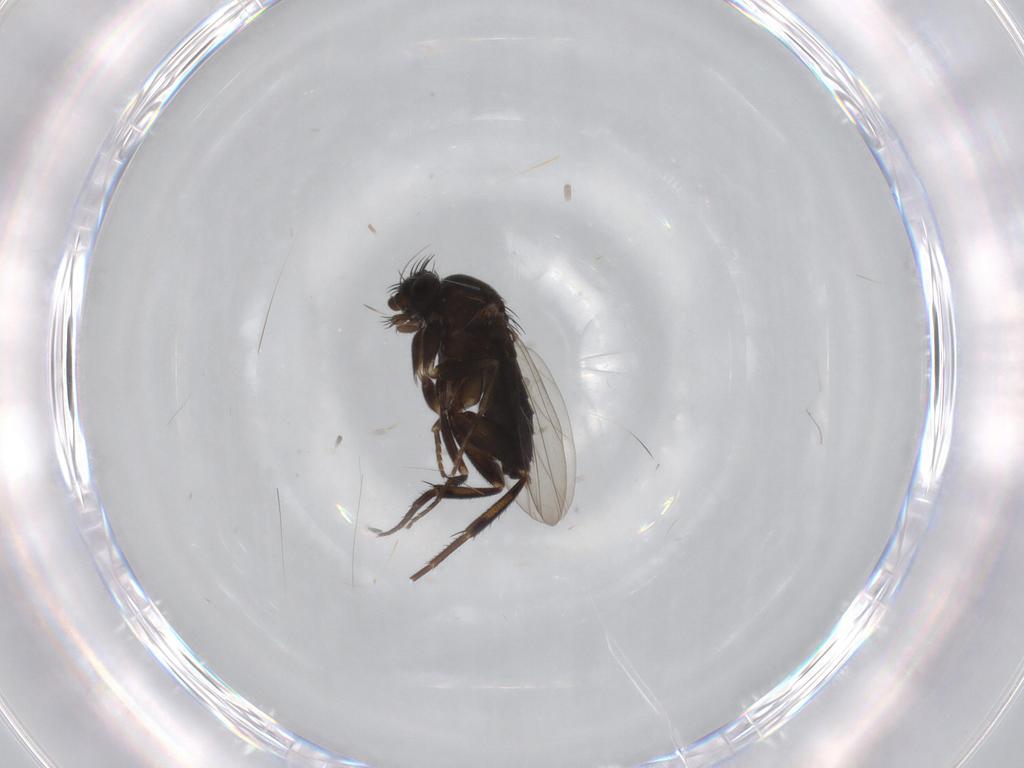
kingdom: Animalia
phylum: Arthropoda
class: Insecta
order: Diptera
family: Phoridae
